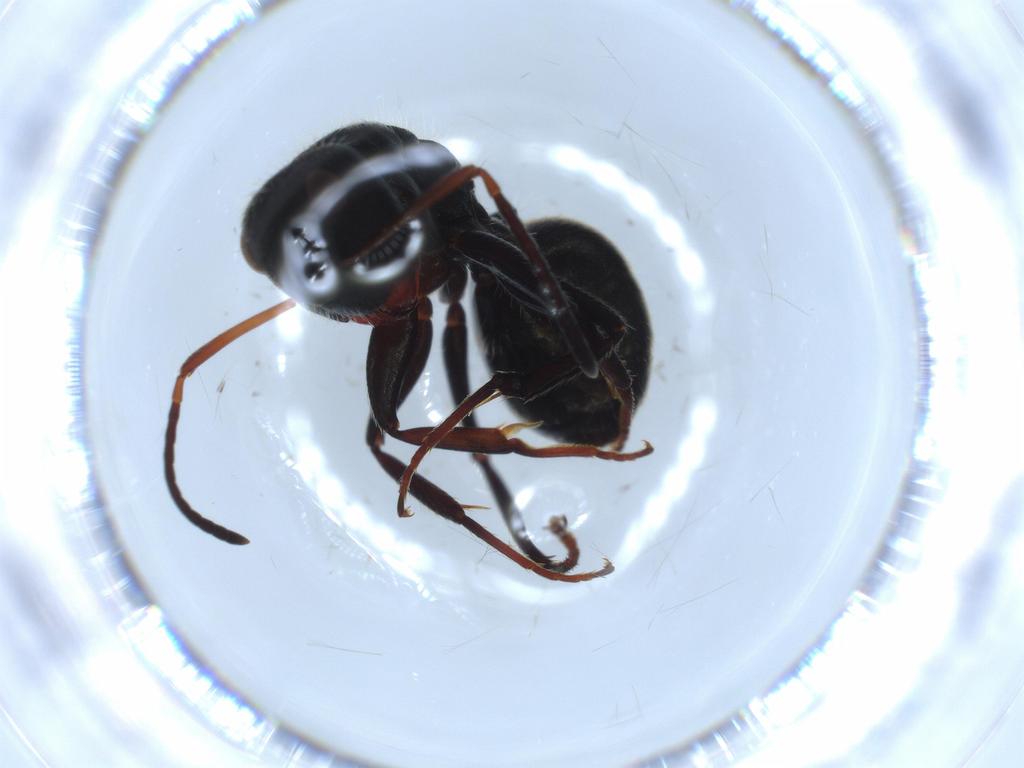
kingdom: Animalia
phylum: Arthropoda
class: Insecta
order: Hymenoptera
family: Formicidae
